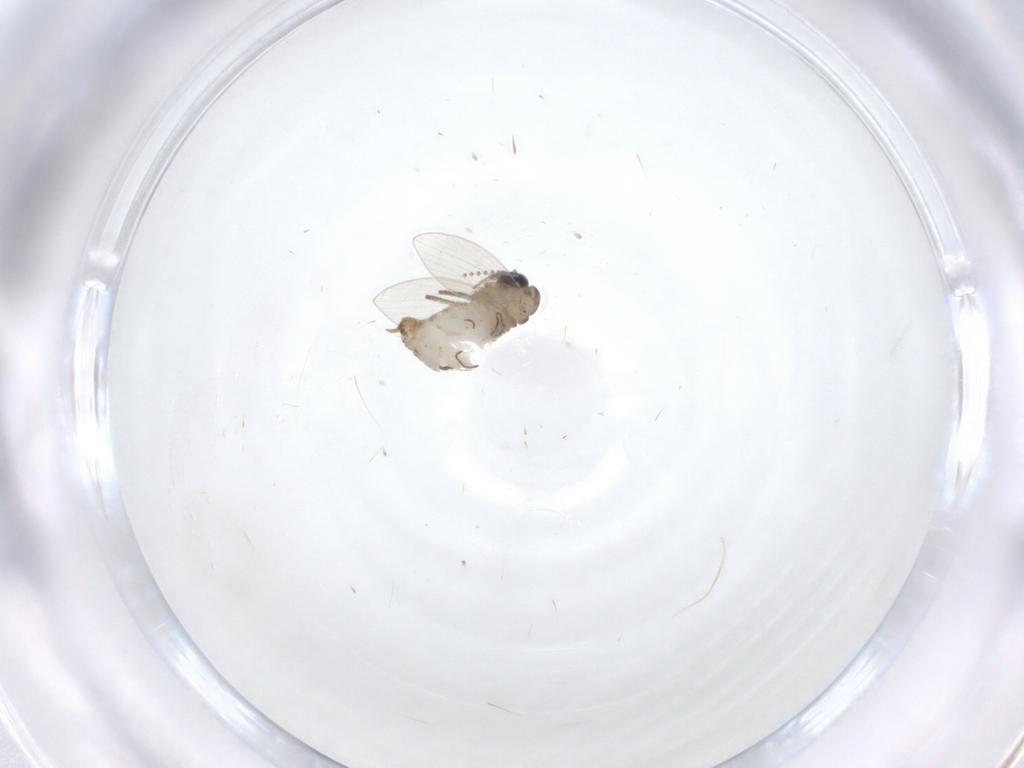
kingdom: Animalia
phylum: Arthropoda
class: Insecta
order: Diptera
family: Psychodidae
